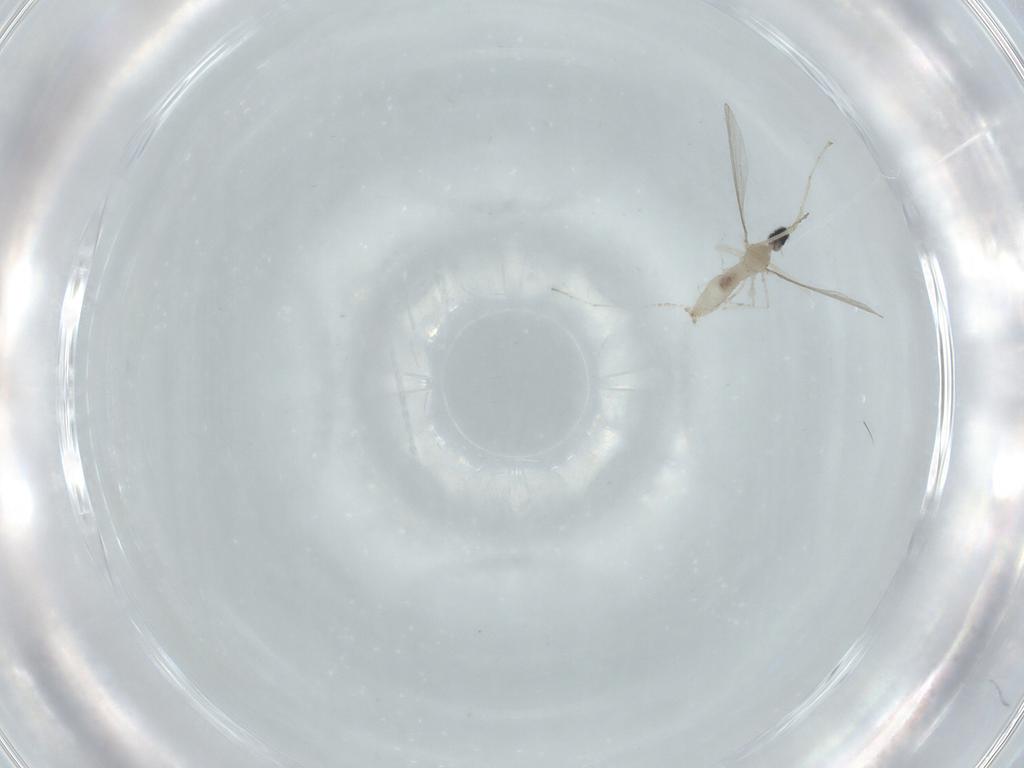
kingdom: Animalia
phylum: Arthropoda
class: Insecta
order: Diptera
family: Cecidomyiidae
